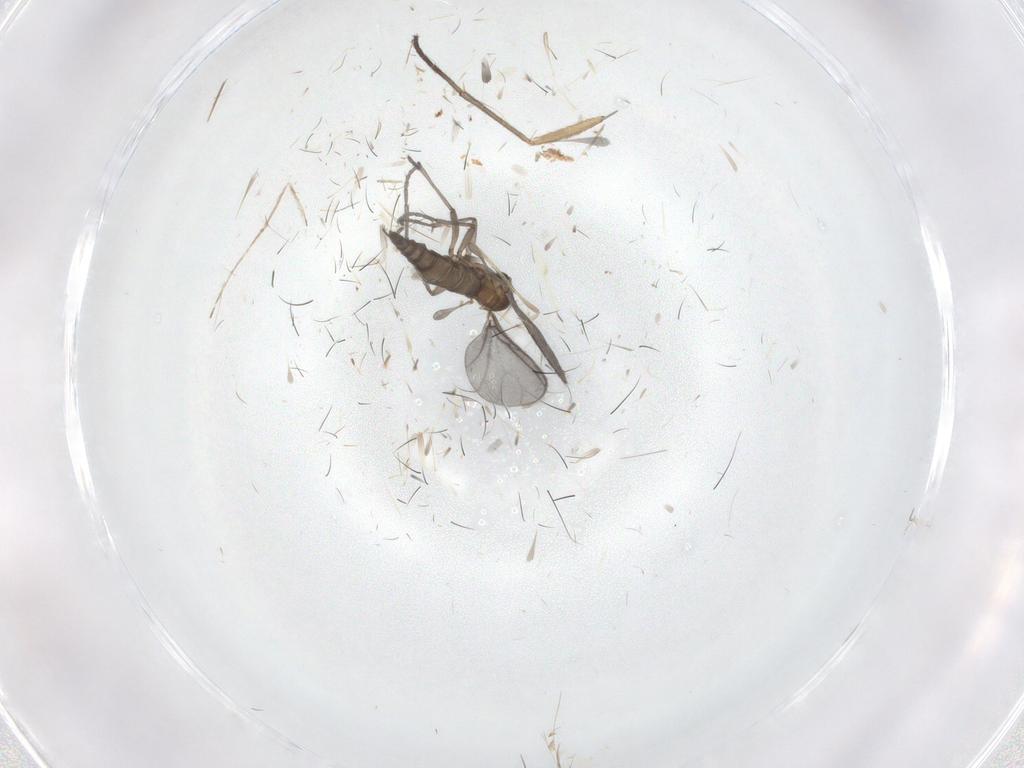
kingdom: Animalia
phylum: Arthropoda
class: Insecta
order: Diptera
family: Sciaridae
